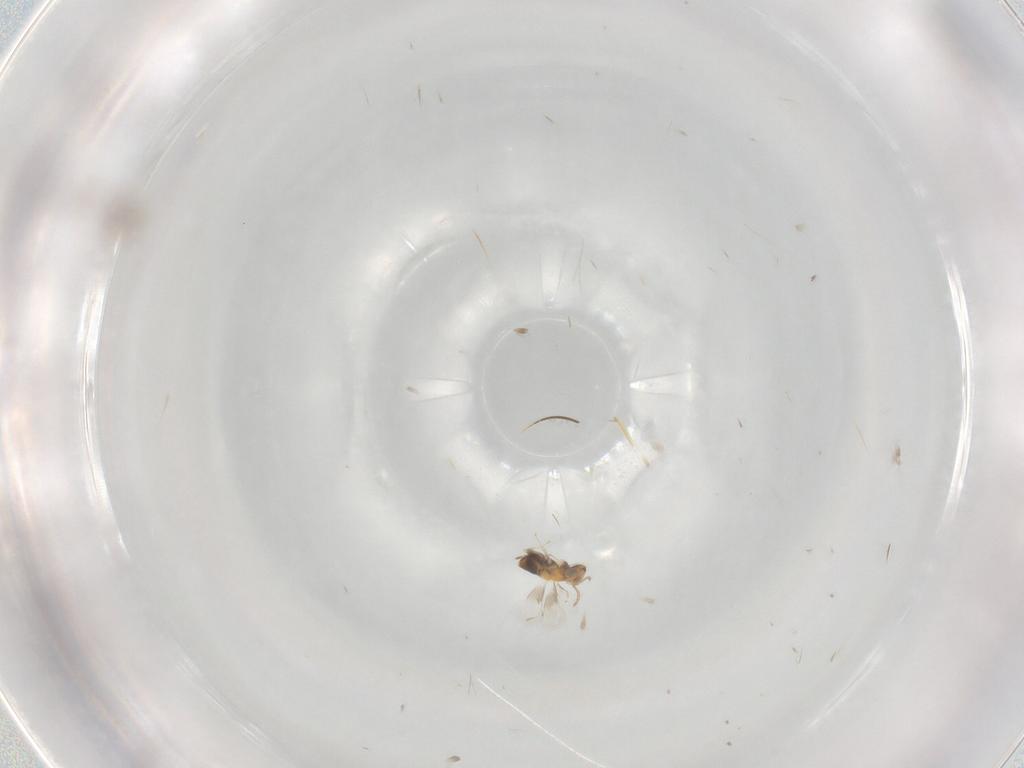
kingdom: Animalia
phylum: Arthropoda
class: Insecta
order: Hymenoptera
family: Aphelinidae
